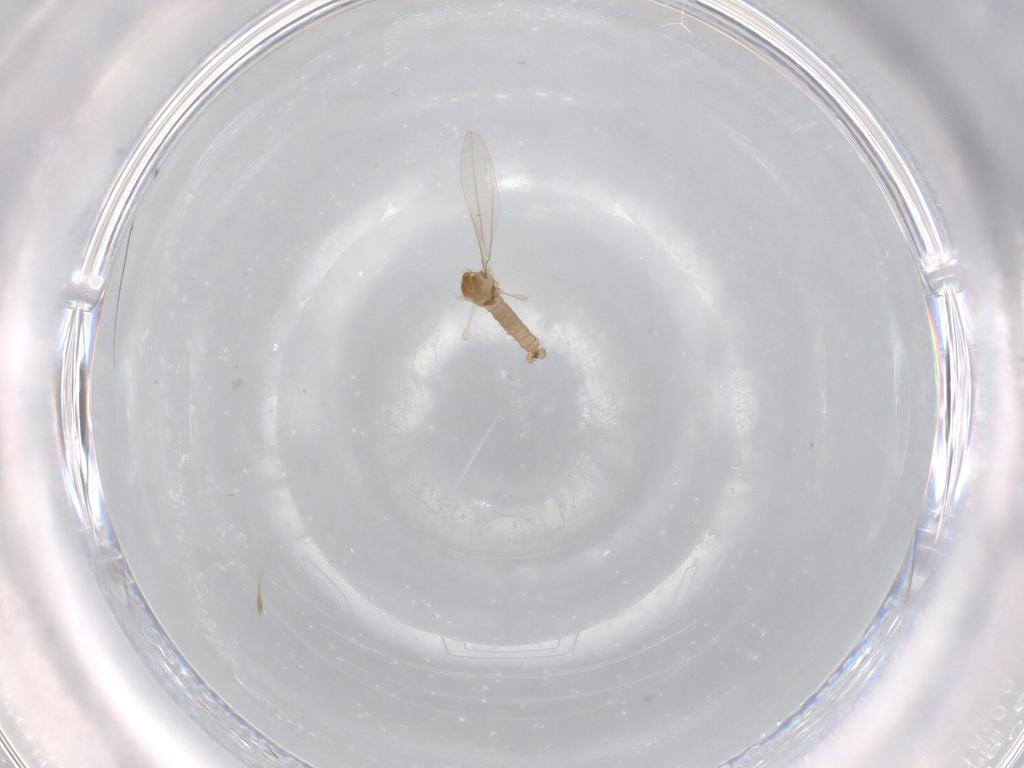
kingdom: Animalia
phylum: Arthropoda
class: Insecta
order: Diptera
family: Cecidomyiidae
